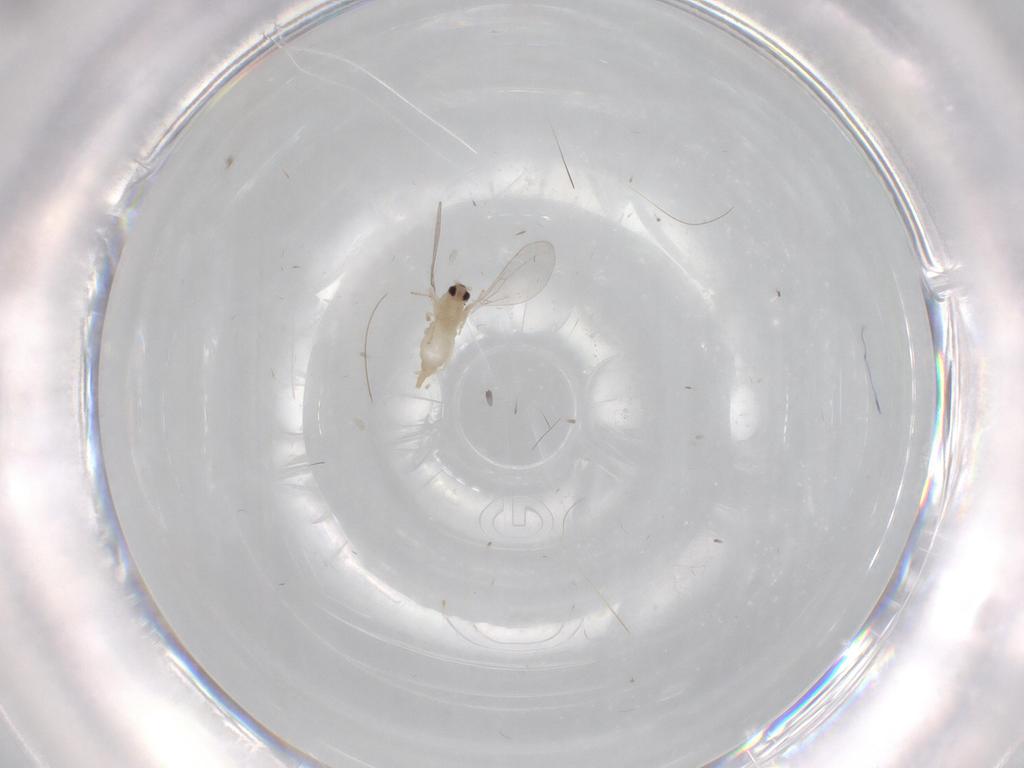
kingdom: Animalia
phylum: Arthropoda
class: Insecta
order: Diptera
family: Cecidomyiidae
